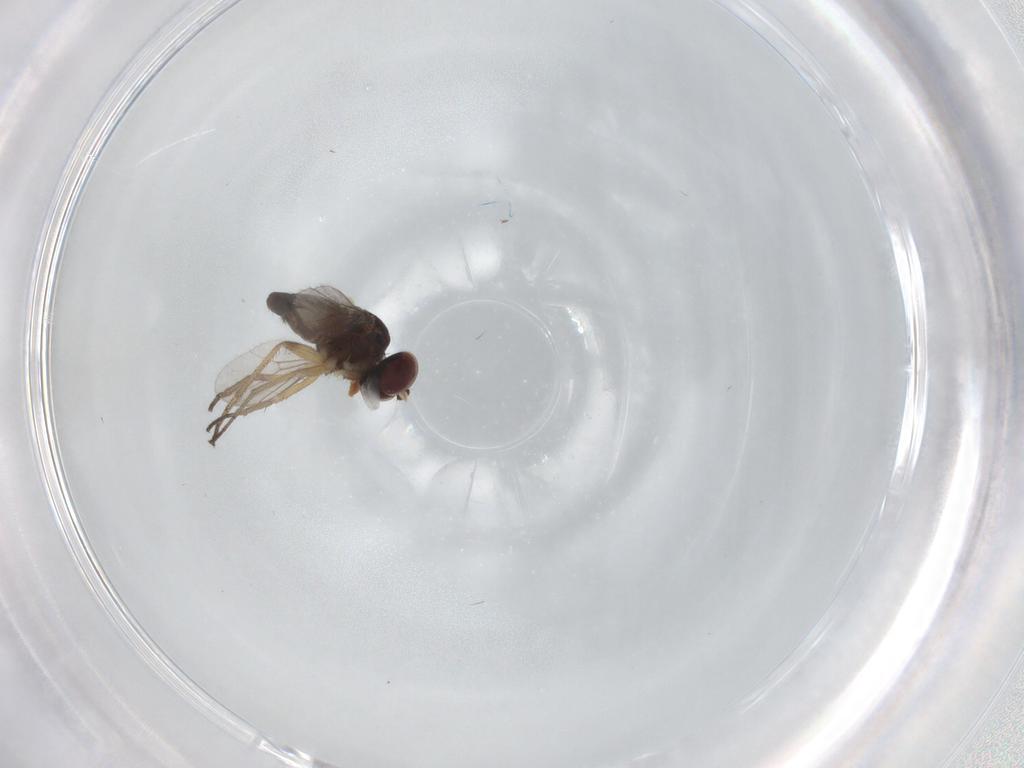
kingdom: Animalia
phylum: Arthropoda
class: Insecta
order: Diptera
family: Dolichopodidae
